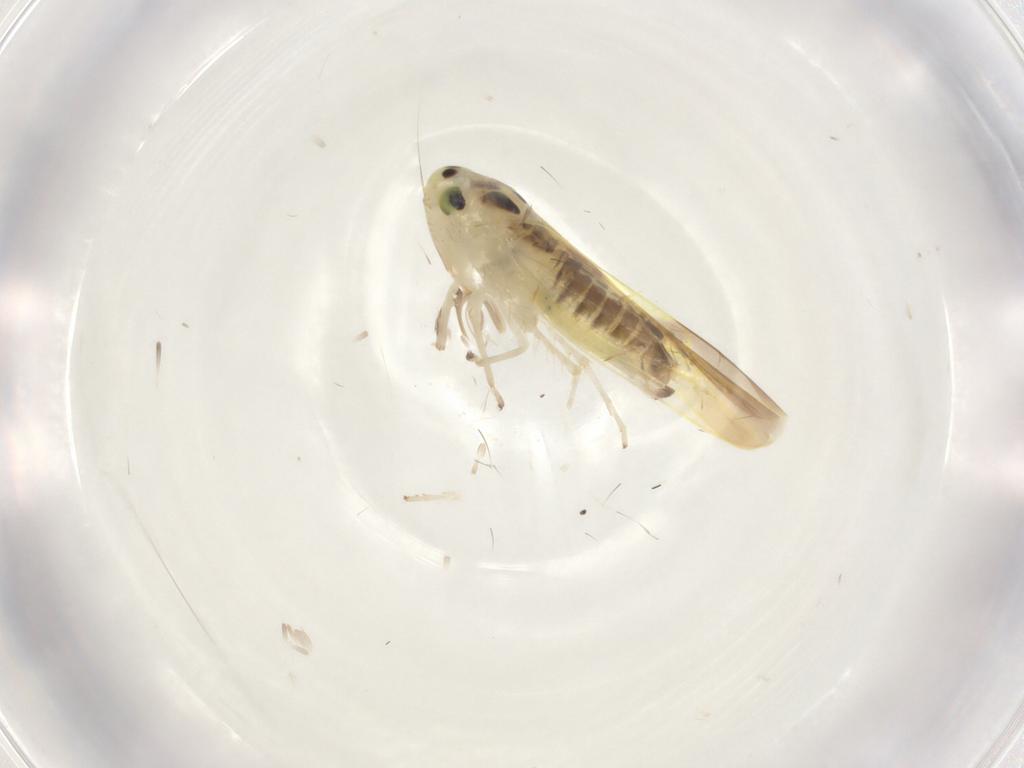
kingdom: Animalia
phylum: Arthropoda
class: Insecta
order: Hemiptera
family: Cicadellidae
